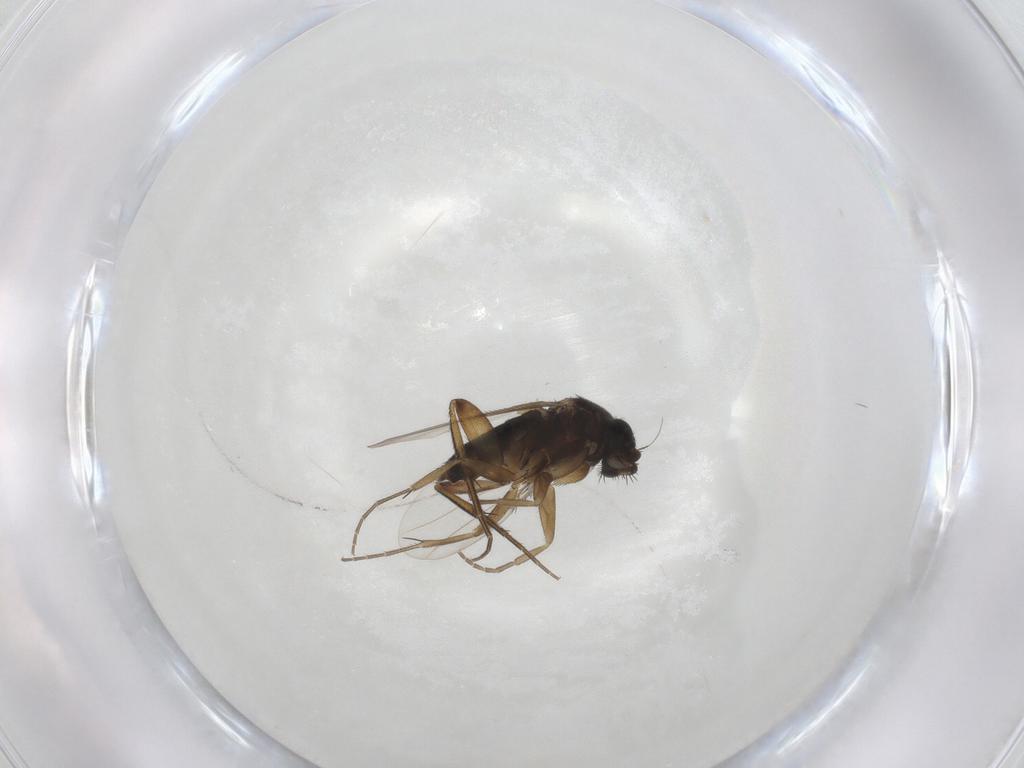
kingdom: Animalia
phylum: Arthropoda
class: Insecta
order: Diptera
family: Phoridae
